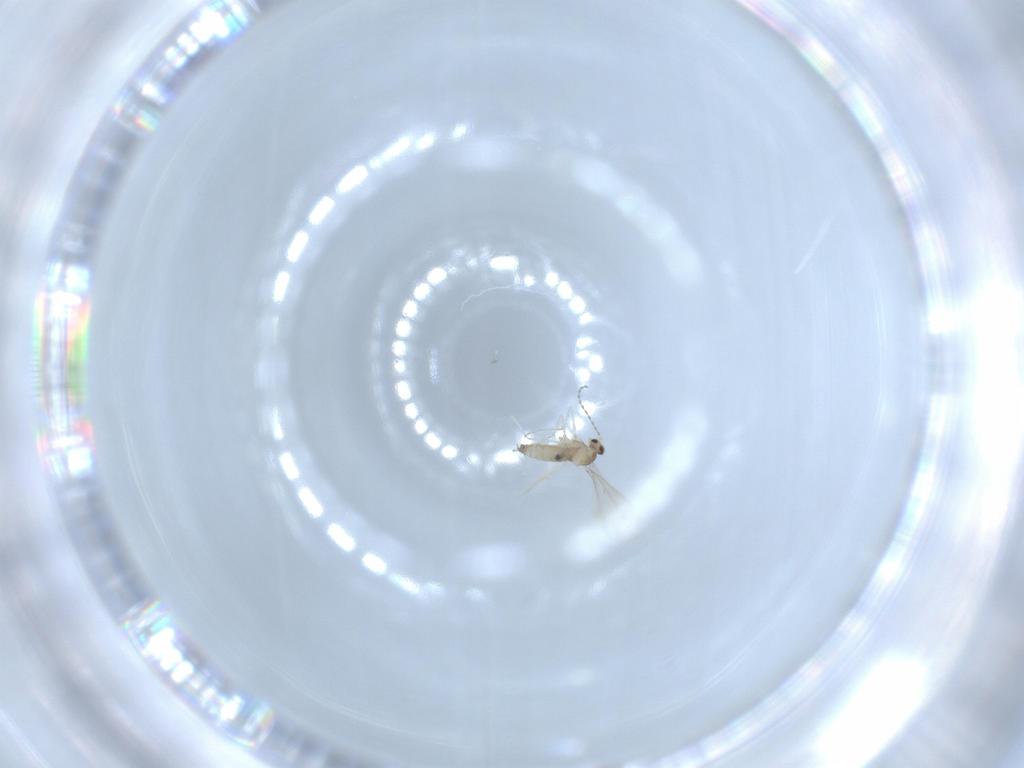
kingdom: Animalia
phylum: Arthropoda
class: Insecta
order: Diptera
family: Cecidomyiidae
